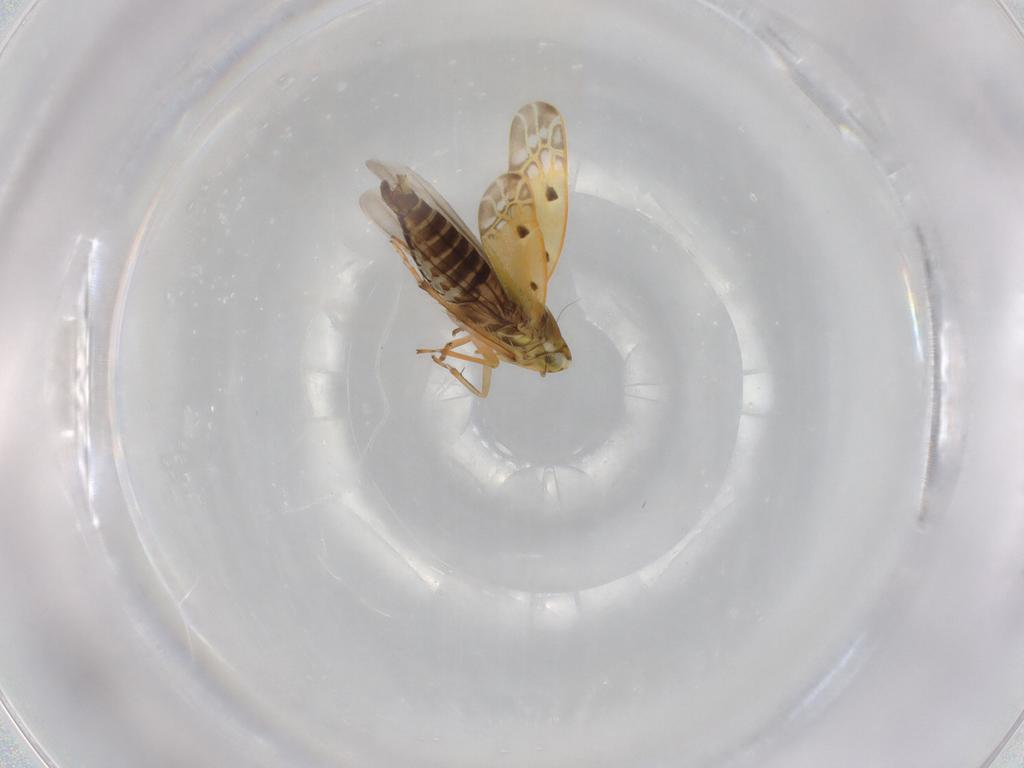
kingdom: Animalia
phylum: Arthropoda
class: Insecta
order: Hemiptera
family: Cicadellidae
